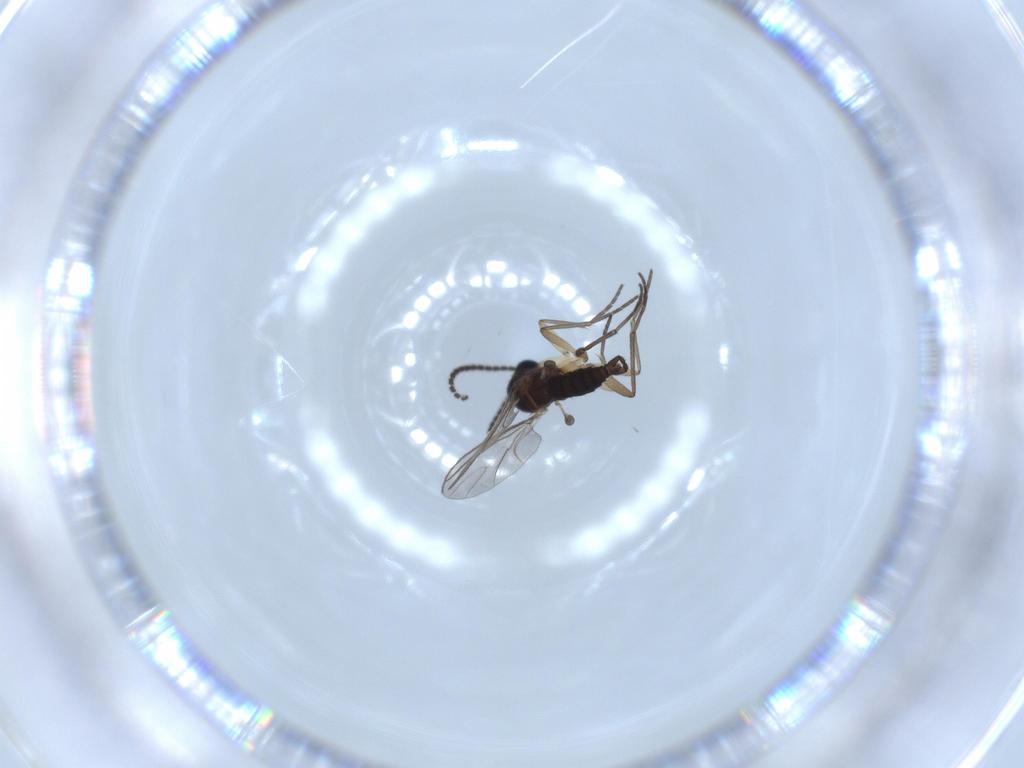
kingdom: Animalia
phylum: Arthropoda
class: Insecta
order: Diptera
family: Sciaridae
